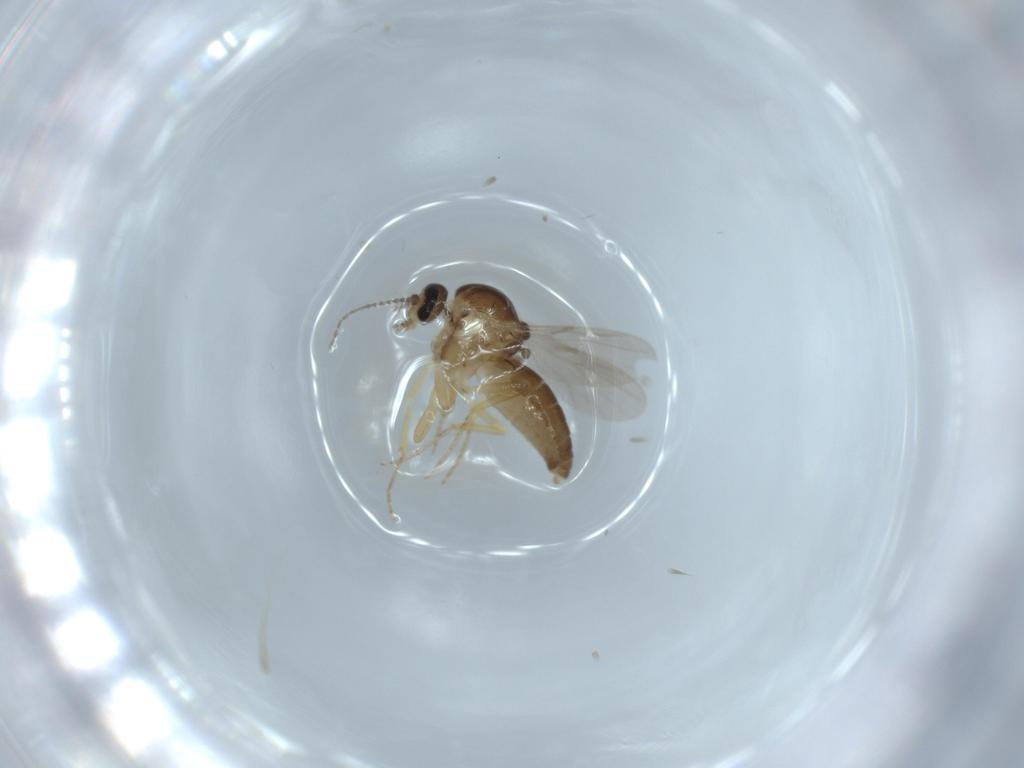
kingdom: Animalia
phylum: Arthropoda
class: Insecta
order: Diptera
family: Ceratopogonidae
